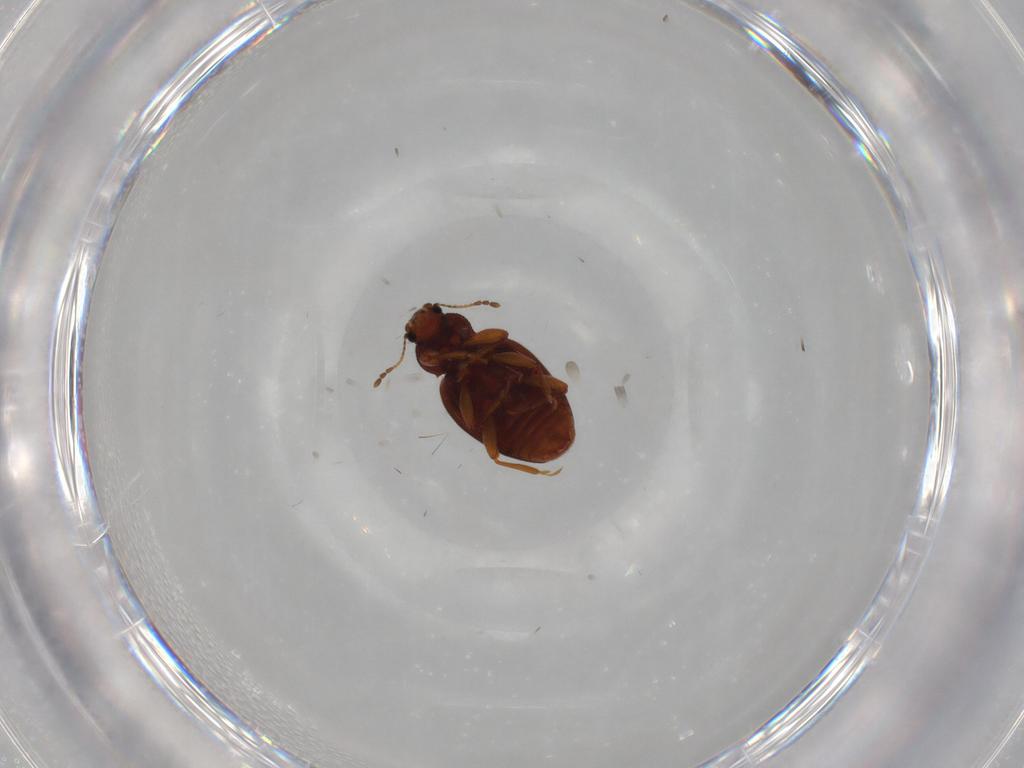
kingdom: Animalia
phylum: Arthropoda
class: Insecta
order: Coleoptera
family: Latridiidae
